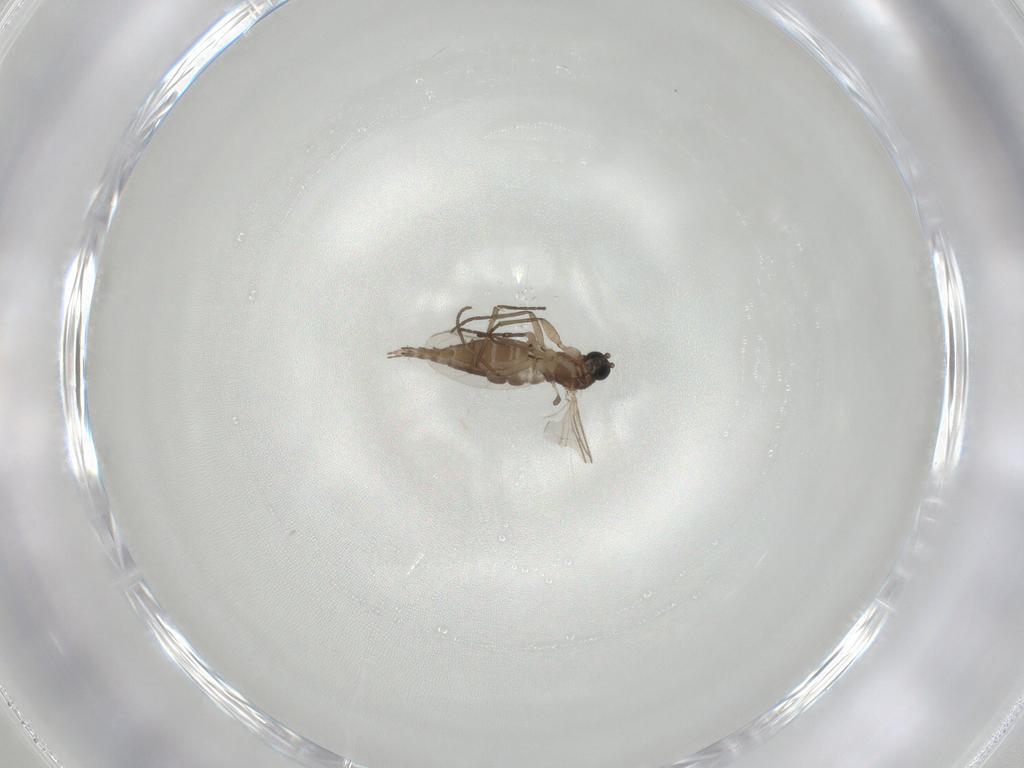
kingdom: Animalia
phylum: Arthropoda
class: Insecta
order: Diptera
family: Sciaridae
